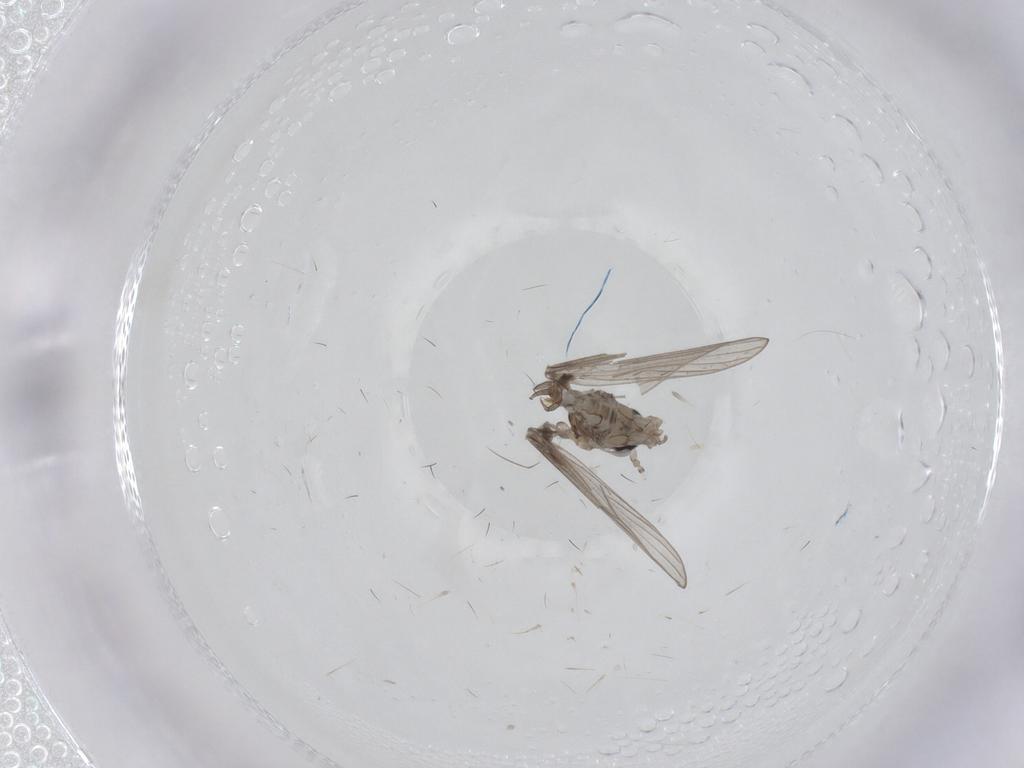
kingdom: Animalia
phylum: Arthropoda
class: Insecta
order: Diptera
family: Psychodidae
